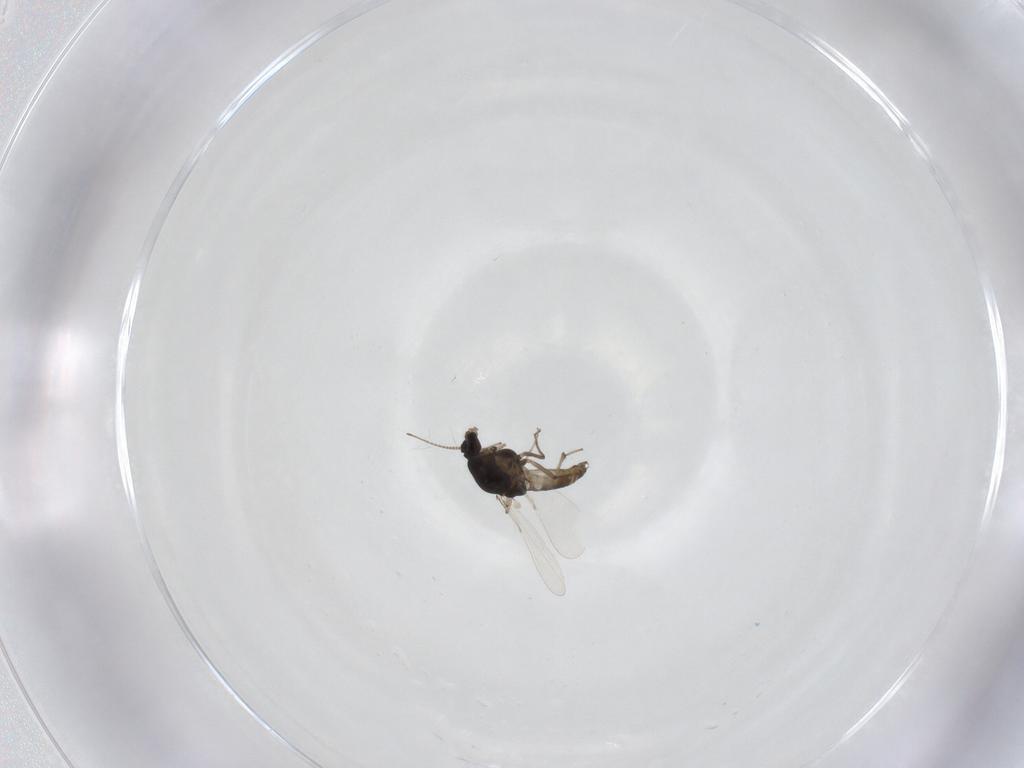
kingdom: Animalia
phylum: Arthropoda
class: Insecta
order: Diptera
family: Chironomidae
